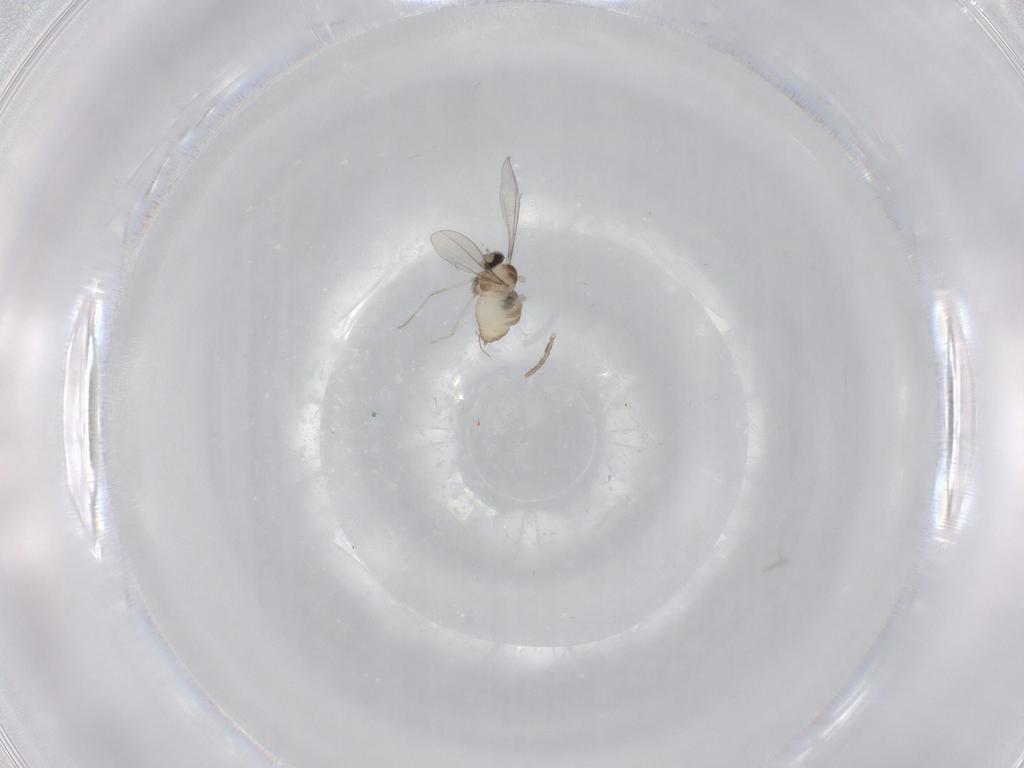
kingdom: Animalia
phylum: Arthropoda
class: Insecta
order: Diptera
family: Cecidomyiidae
